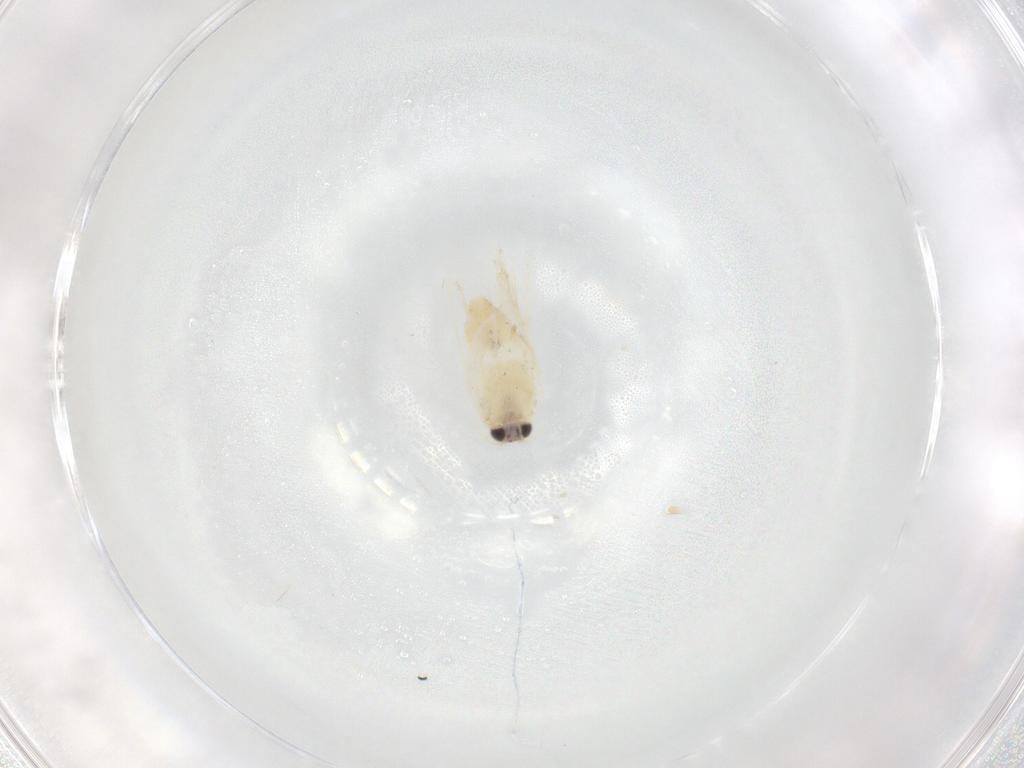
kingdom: Animalia
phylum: Arthropoda
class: Insecta
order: Lepidoptera
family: Nepticulidae
